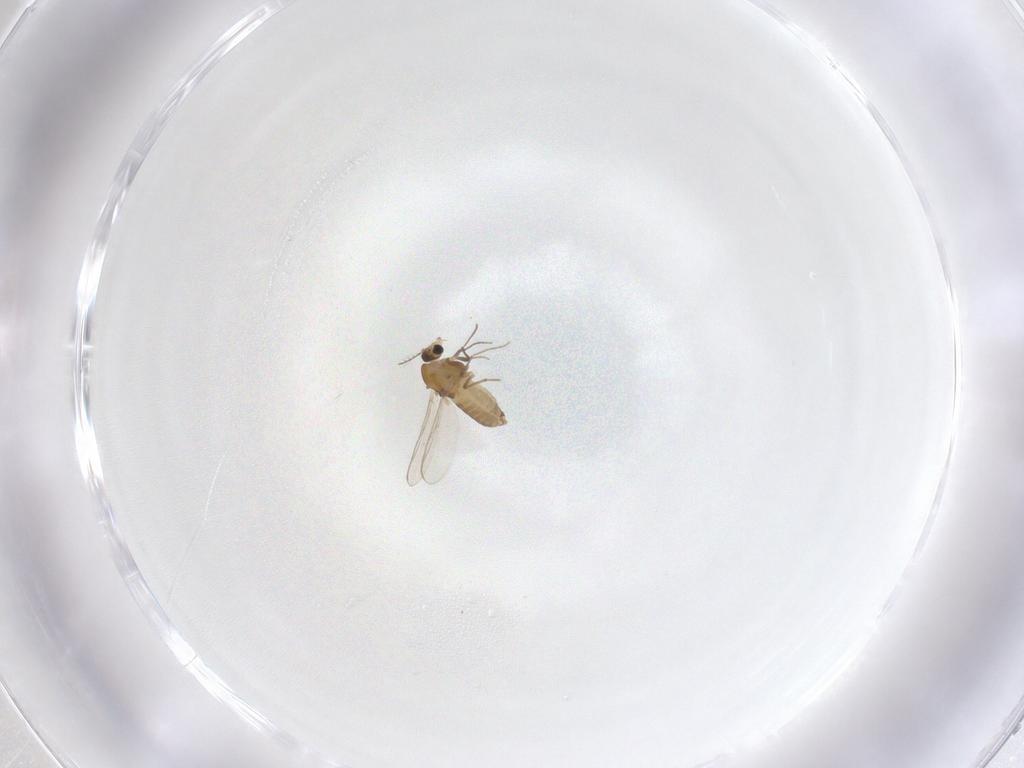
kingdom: Animalia
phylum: Arthropoda
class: Insecta
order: Diptera
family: Chironomidae
